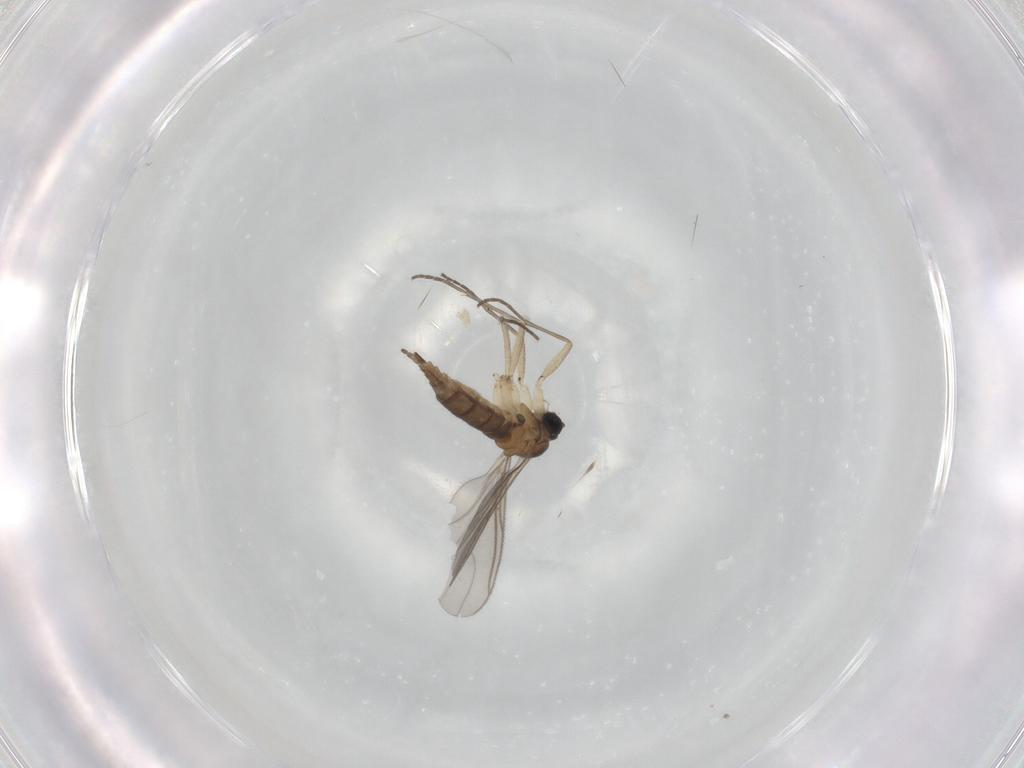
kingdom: Animalia
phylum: Arthropoda
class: Insecta
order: Diptera
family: Sciaridae
